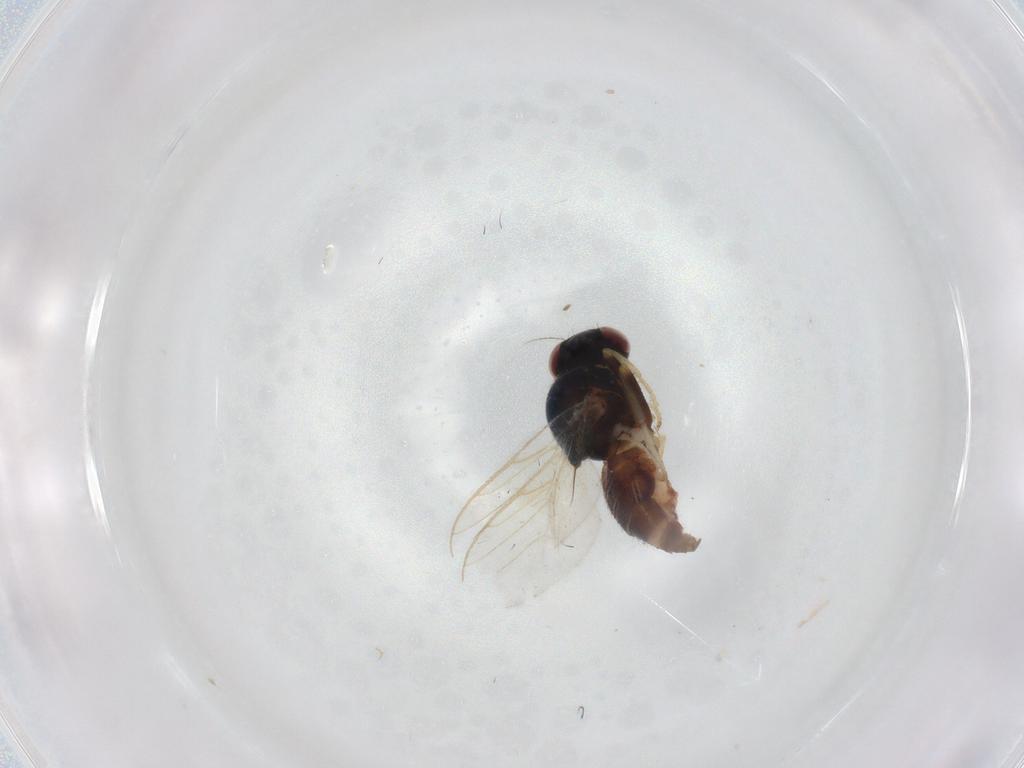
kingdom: Animalia
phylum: Arthropoda
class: Insecta
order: Diptera
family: Chloropidae
